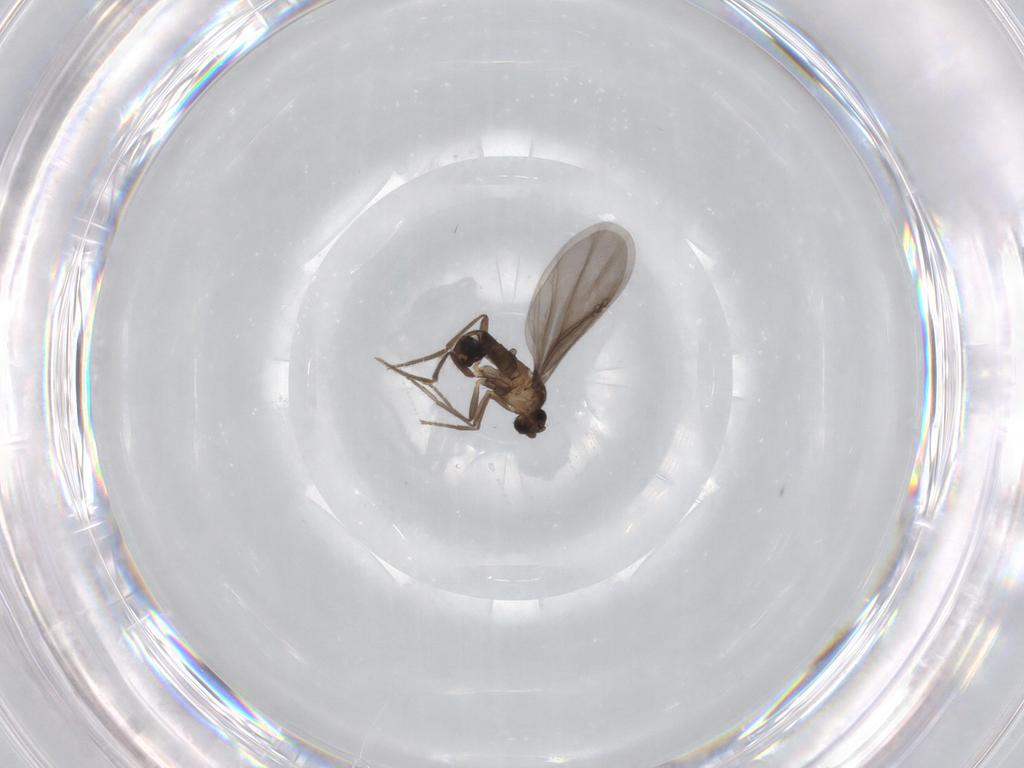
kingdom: Animalia
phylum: Arthropoda
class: Insecta
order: Diptera
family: Phoridae
